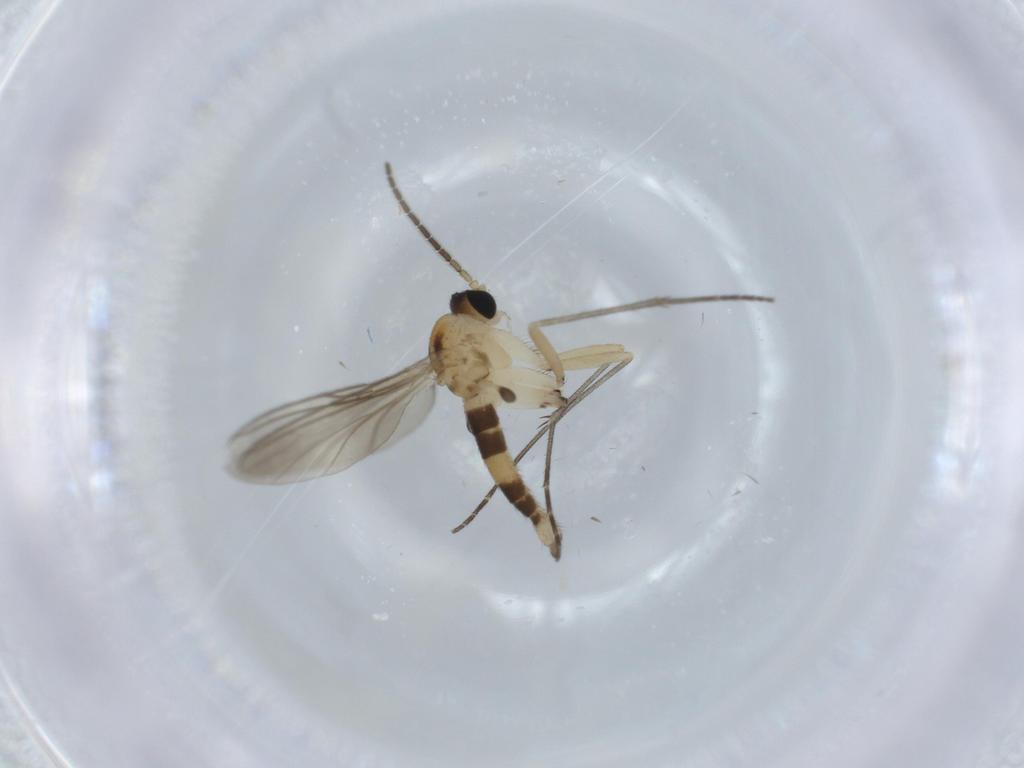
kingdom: Animalia
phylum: Arthropoda
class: Insecta
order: Diptera
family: Sciaridae
